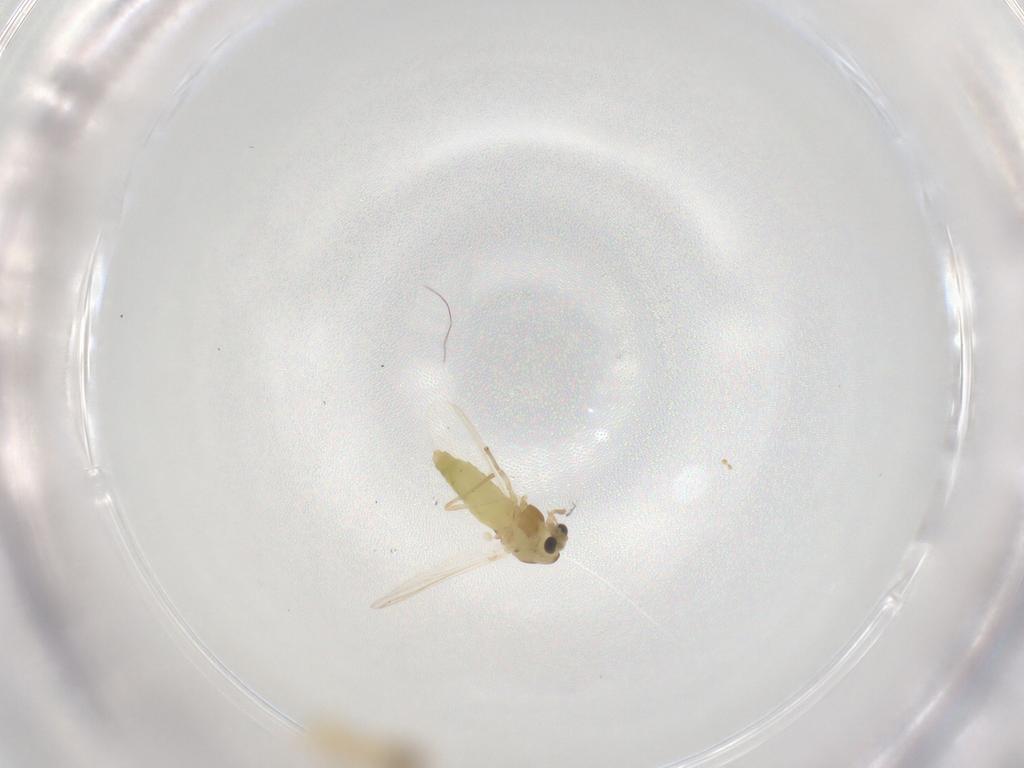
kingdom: Animalia
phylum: Arthropoda
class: Insecta
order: Diptera
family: Chironomidae
